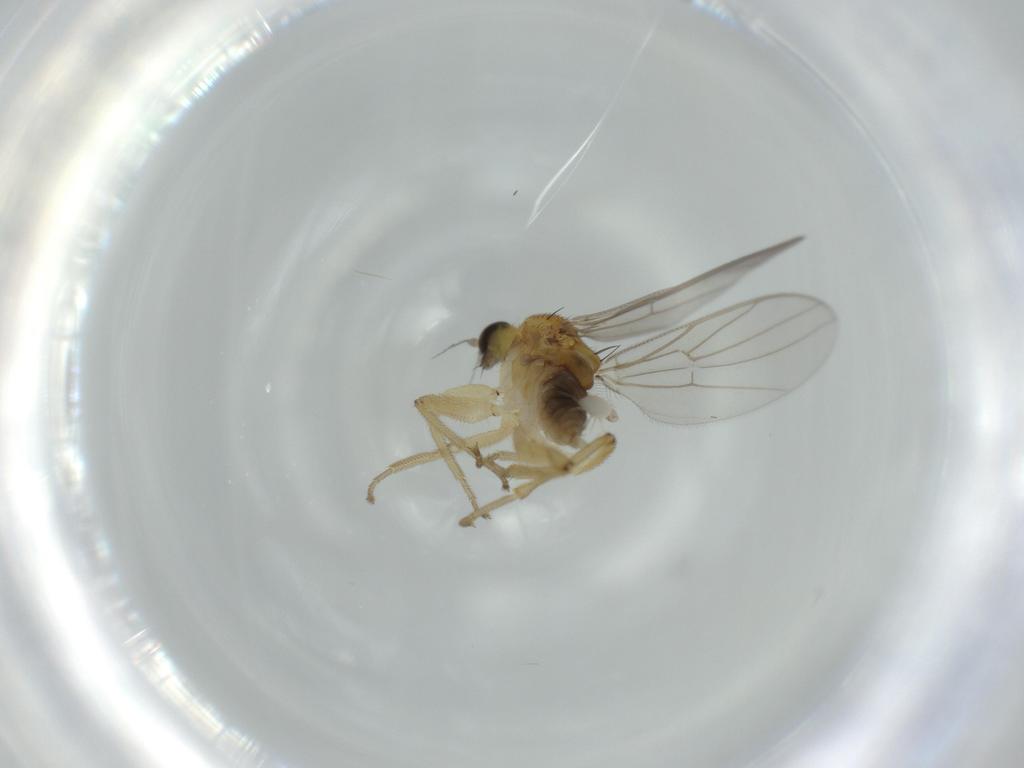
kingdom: Animalia
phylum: Arthropoda
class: Insecta
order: Diptera
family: Hybotidae
